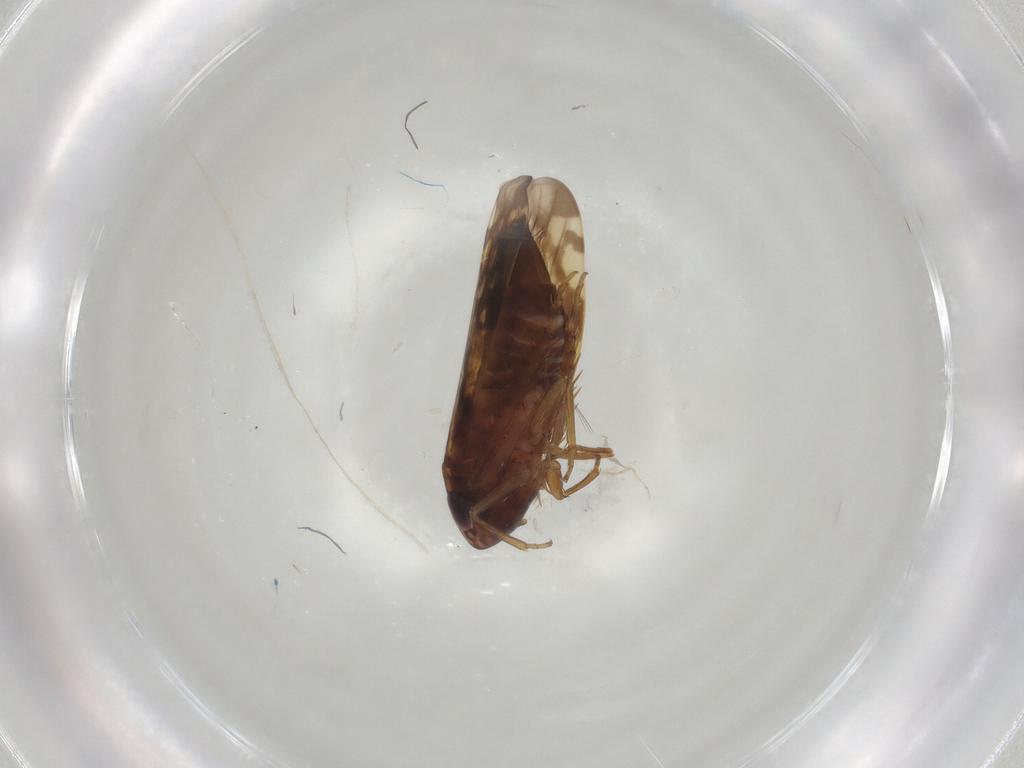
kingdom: Animalia
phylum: Arthropoda
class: Insecta
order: Hemiptera
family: Cicadellidae
